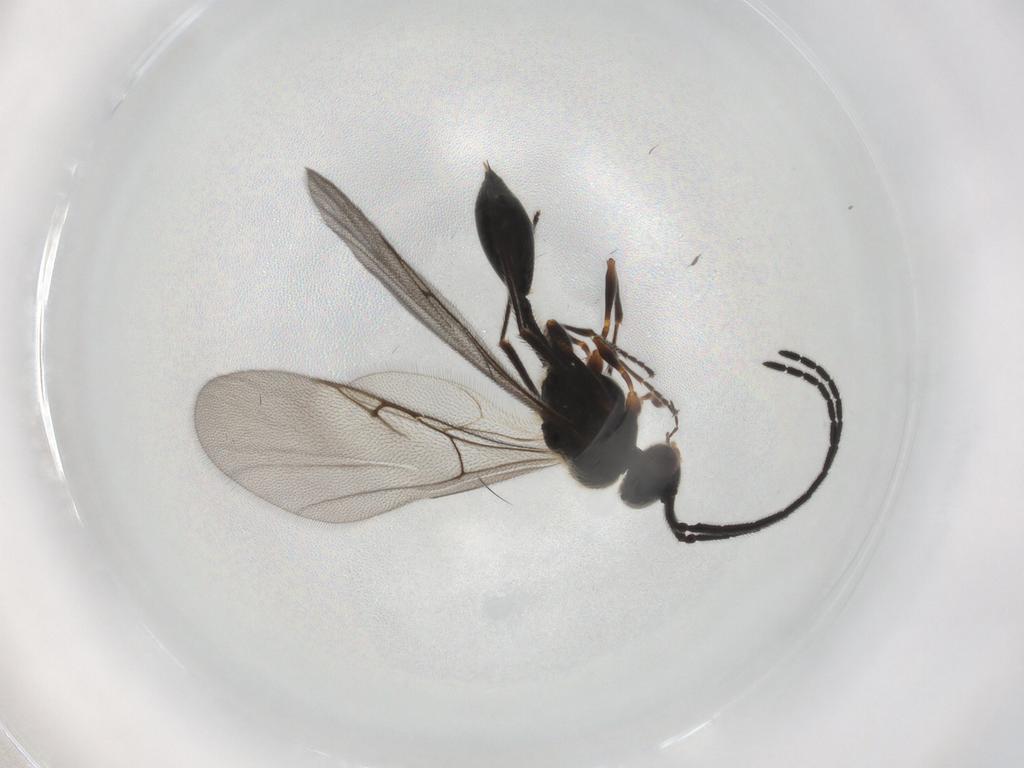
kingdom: Animalia
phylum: Arthropoda
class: Insecta
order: Hymenoptera
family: Diapriidae
